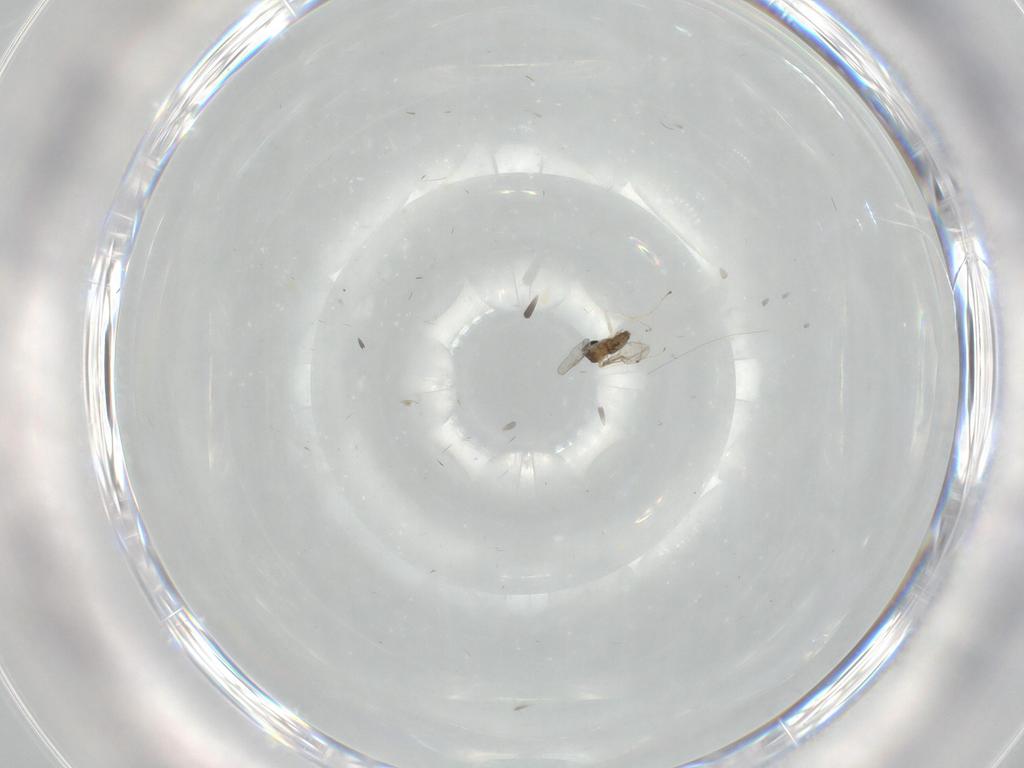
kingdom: Animalia
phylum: Arthropoda
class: Insecta
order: Diptera
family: Cecidomyiidae
